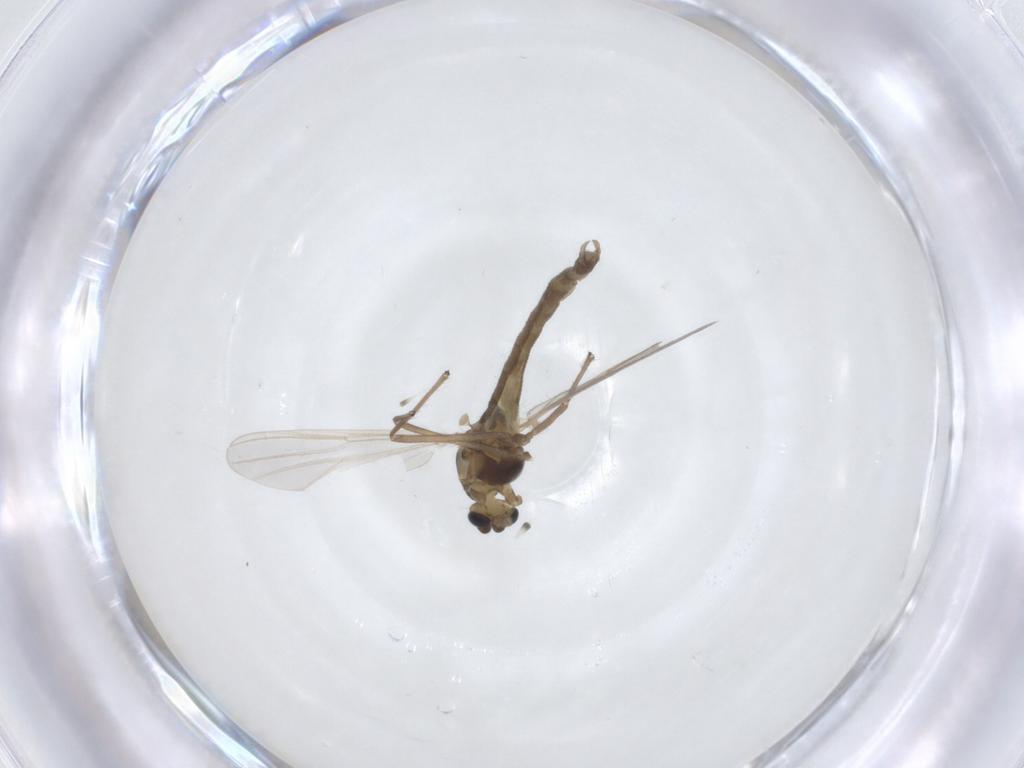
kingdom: Animalia
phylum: Arthropoda
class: Insecta
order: Diptera
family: Chironomidae
